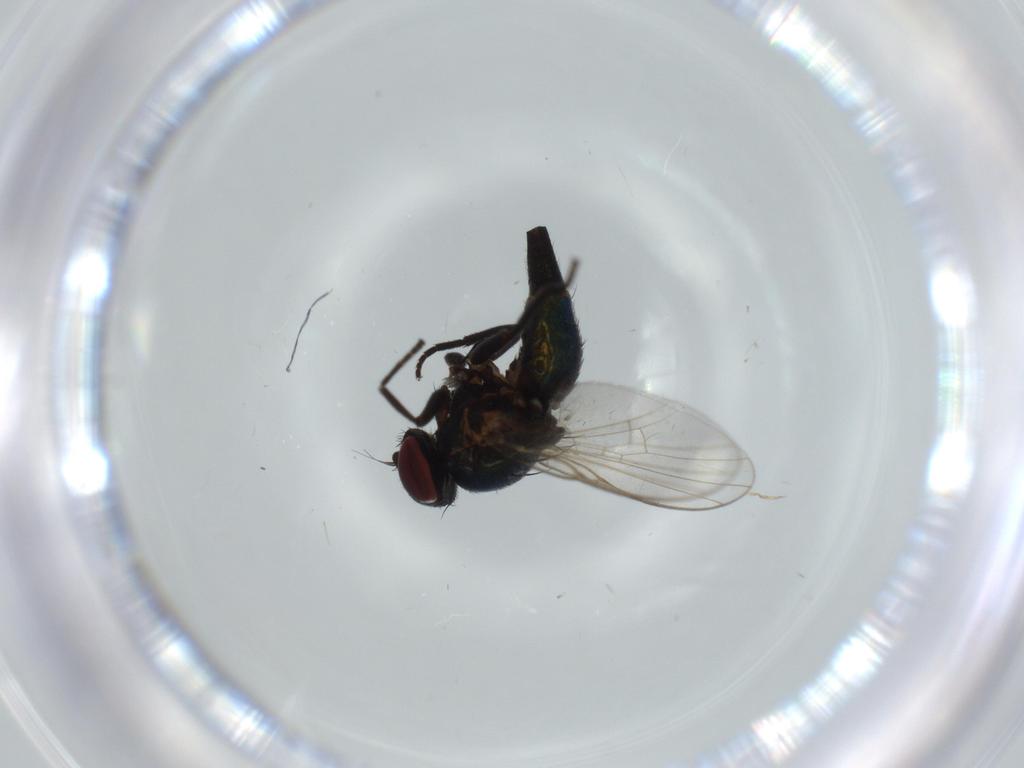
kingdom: Animalia
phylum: Arthropoda
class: Insecta
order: Diptera
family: Agromyzidae
